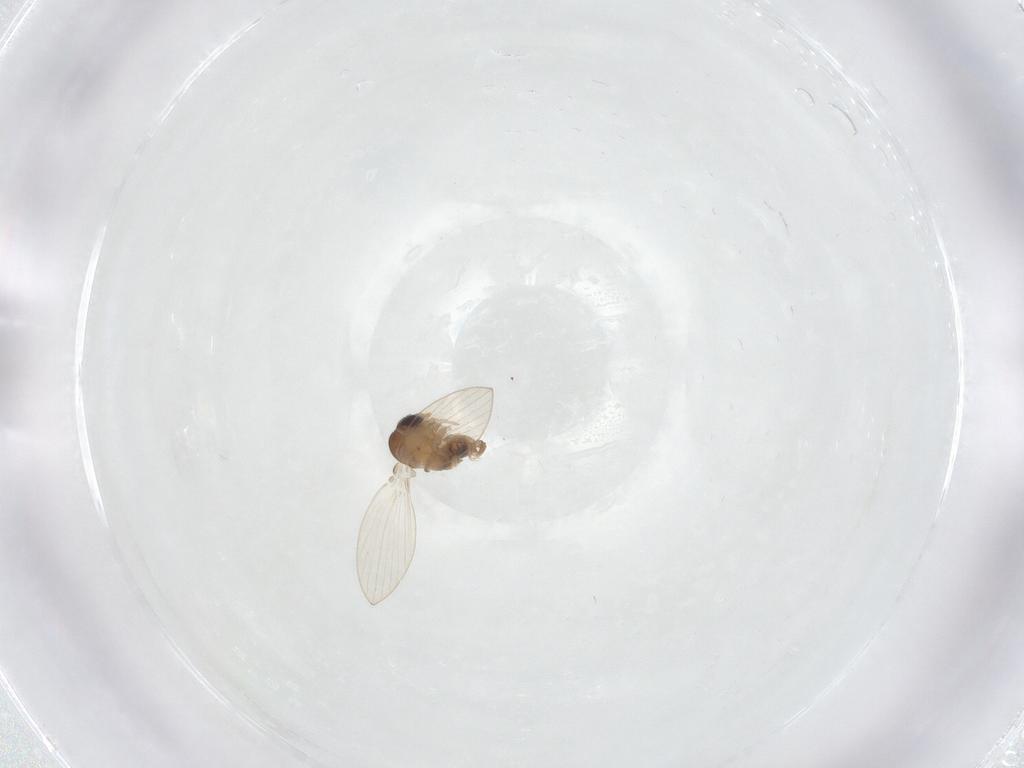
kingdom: Animalia
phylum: Arthropoda
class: Insecta
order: Diptera
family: Psychodidae
